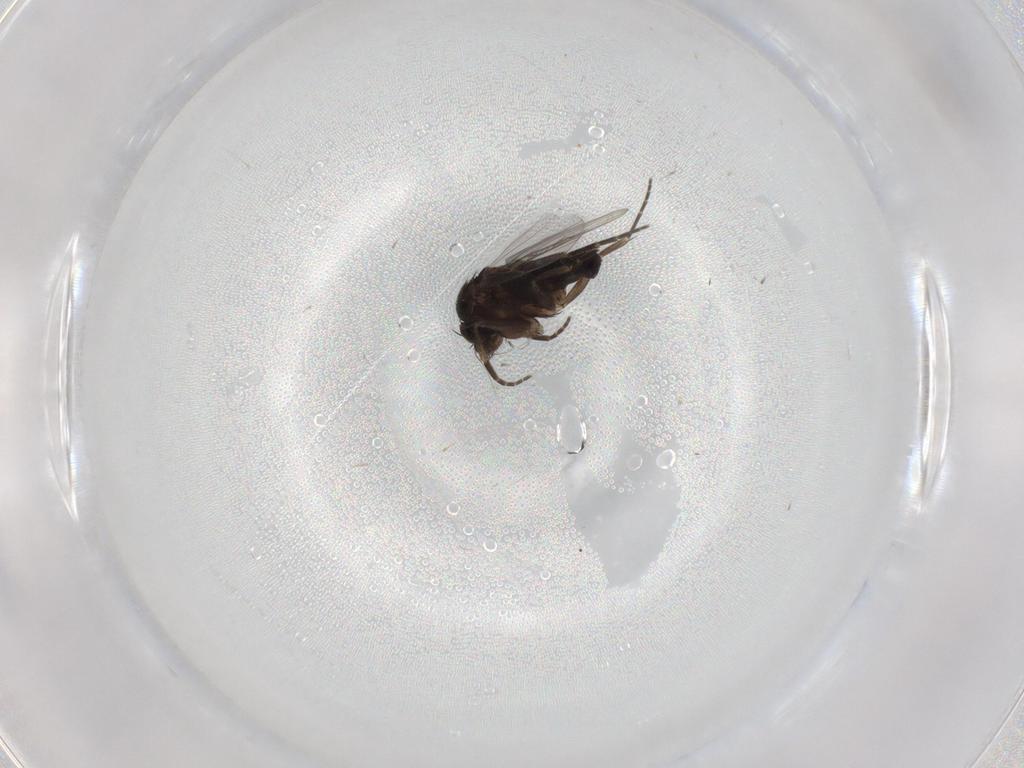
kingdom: Animalia
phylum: Arthropoda
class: Insecta
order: Diptera
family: Phoridae
